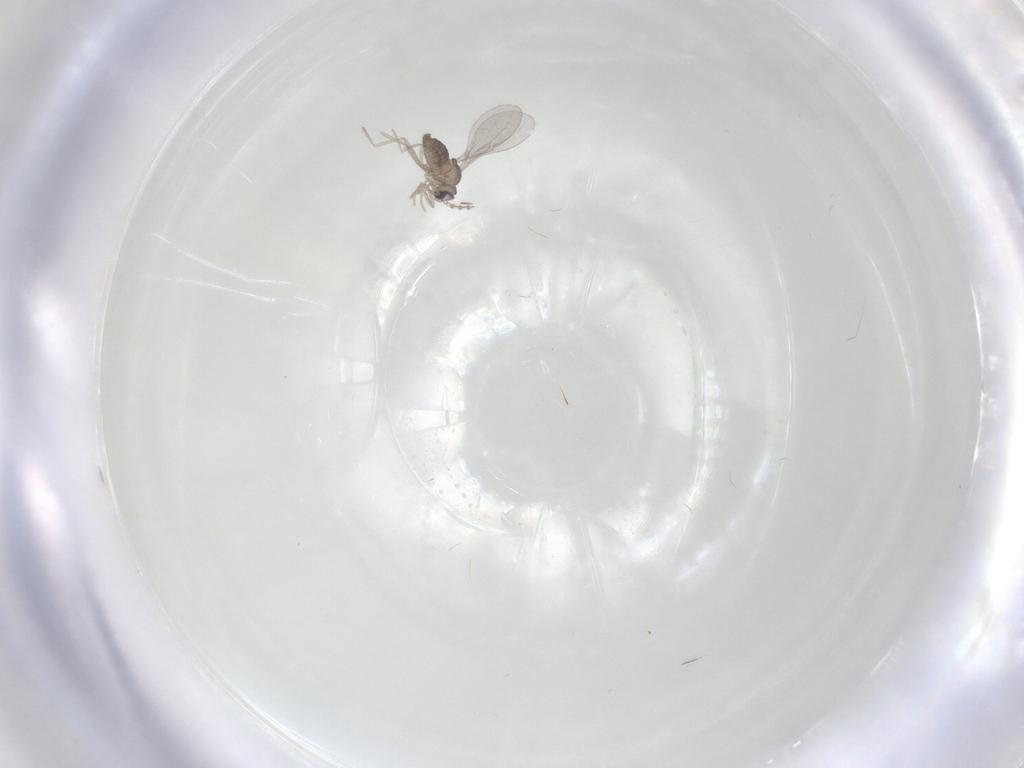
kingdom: Animalia
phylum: Arthropoda
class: Insecta
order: Diptera
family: Cecidomyiidae
